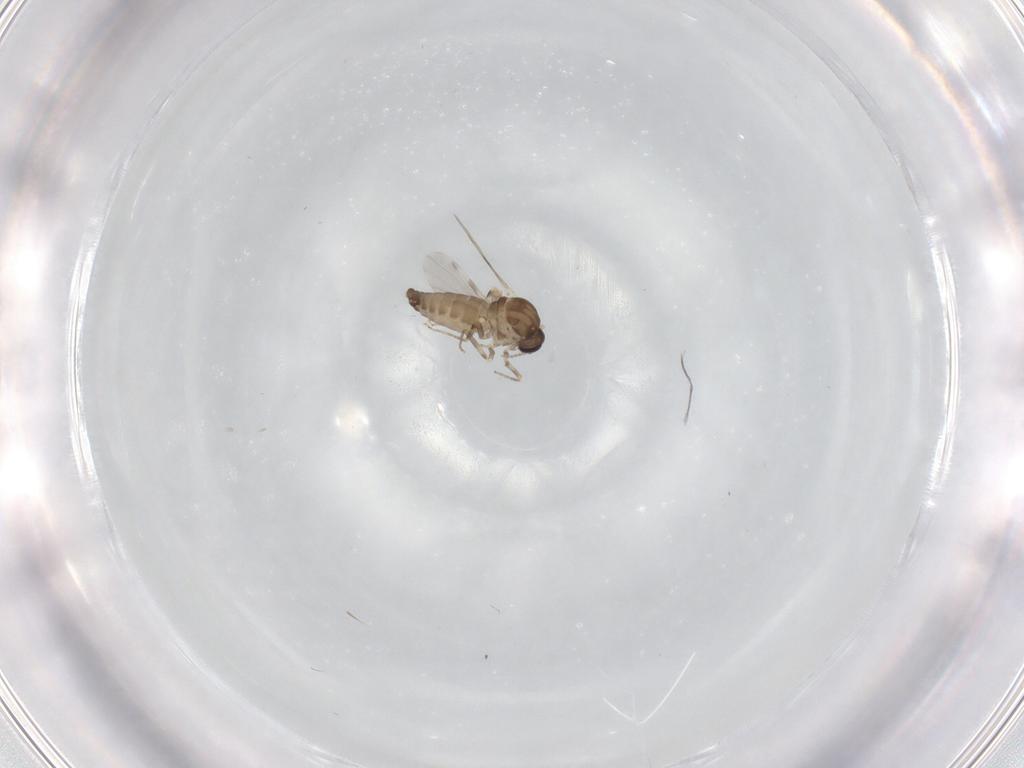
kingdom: Animalia
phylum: Arthropoda
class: Insecta
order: Diptera
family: Ceratopogonidae
